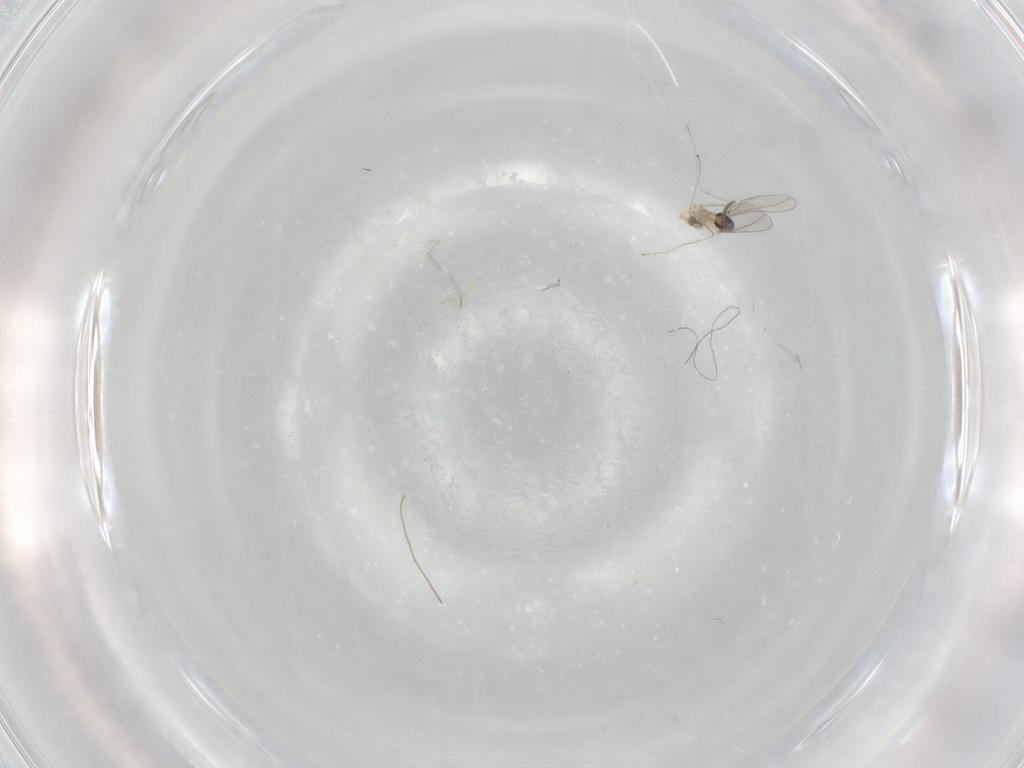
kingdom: Animalia
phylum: Arthropoda
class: Insecta
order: Diptera
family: Cecidomyiidae
